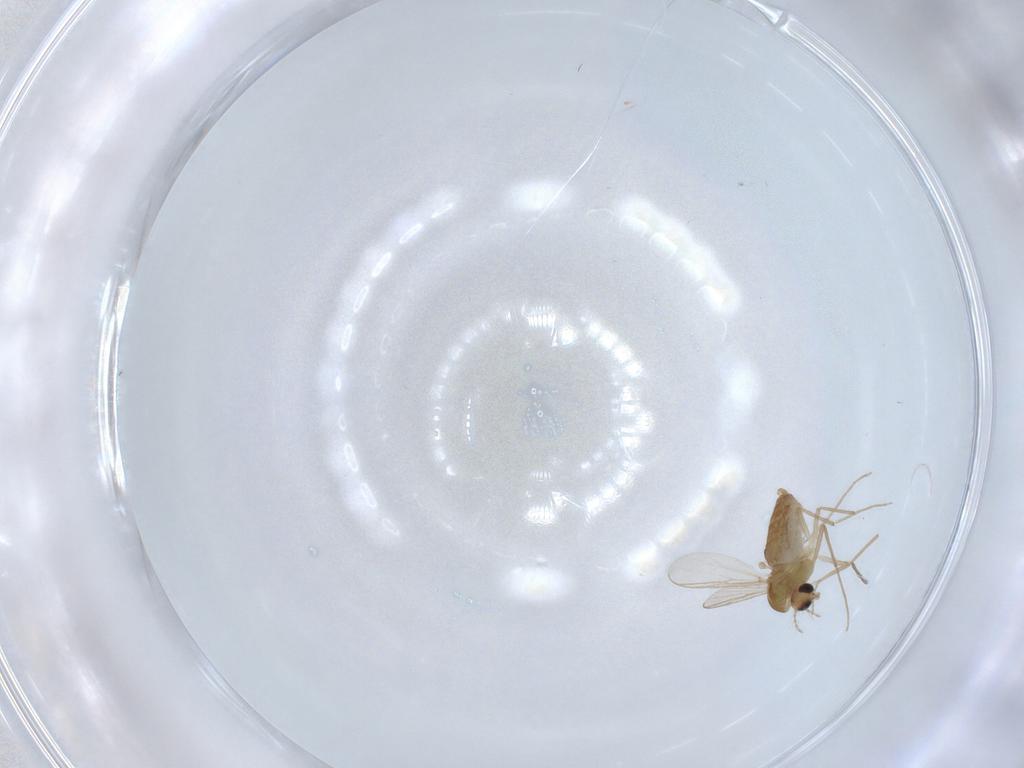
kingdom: Animalia
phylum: Arthropoda
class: Insecta
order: Diptera
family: Chironomidae
